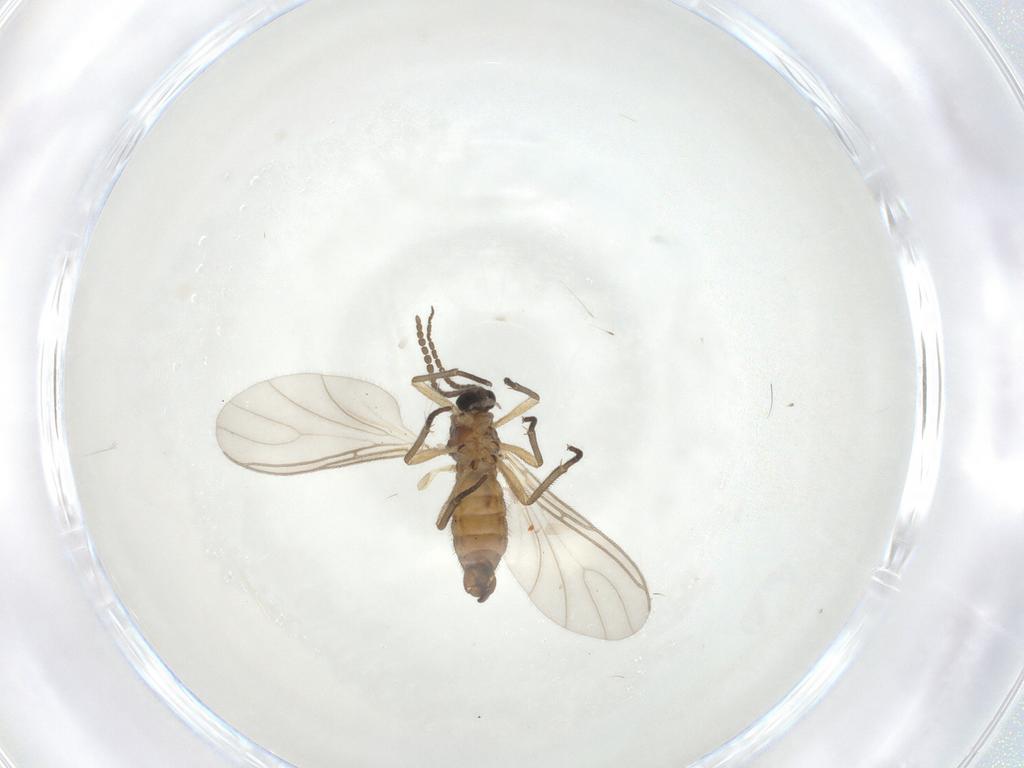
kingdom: Animalia
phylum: Arthropoda
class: Insecta
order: Diptera
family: Sciaridae
